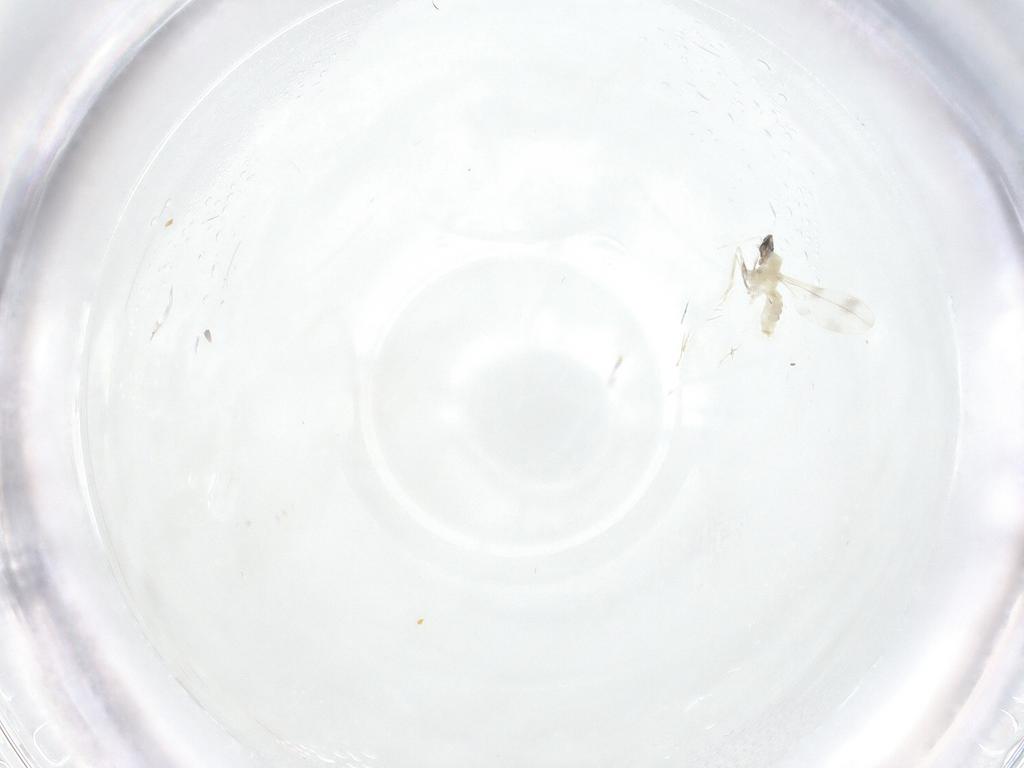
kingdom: Animalia
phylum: Arthropoda
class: Insecta
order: Diptera
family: Cecidomyiidae
